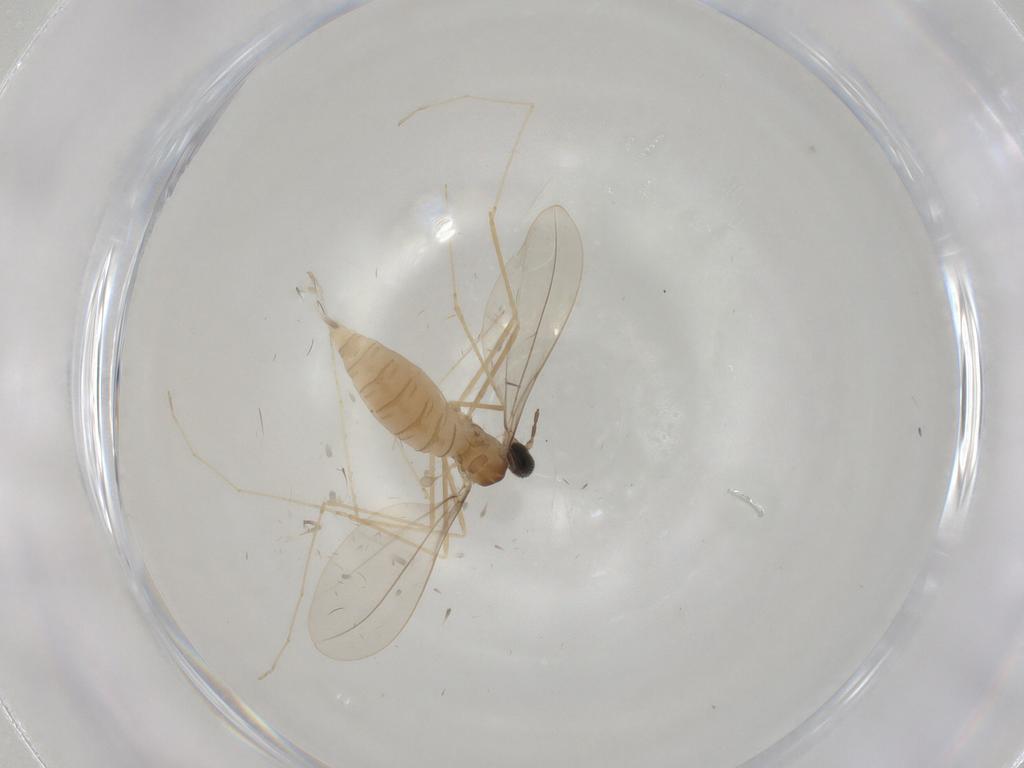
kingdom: Animalia
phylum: Arthropoda
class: Insecta
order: Diptera
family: Cecidomyiidae
